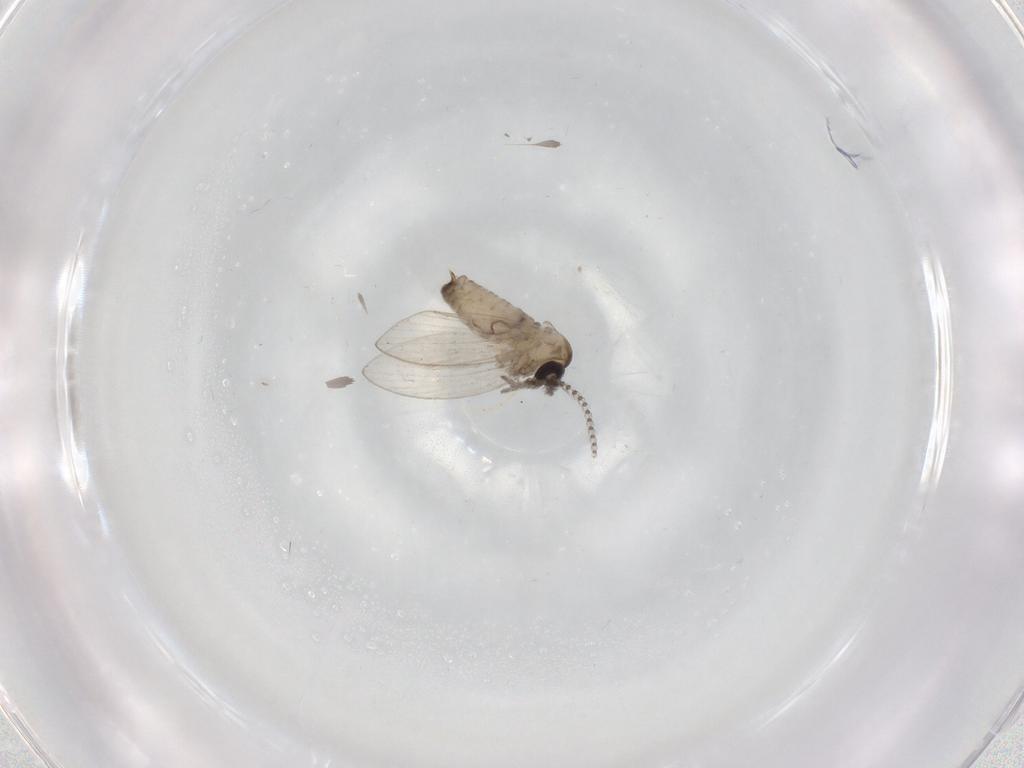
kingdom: Animalia
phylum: Arthropoda
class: Insecta
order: Diptera
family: Psychodidae
